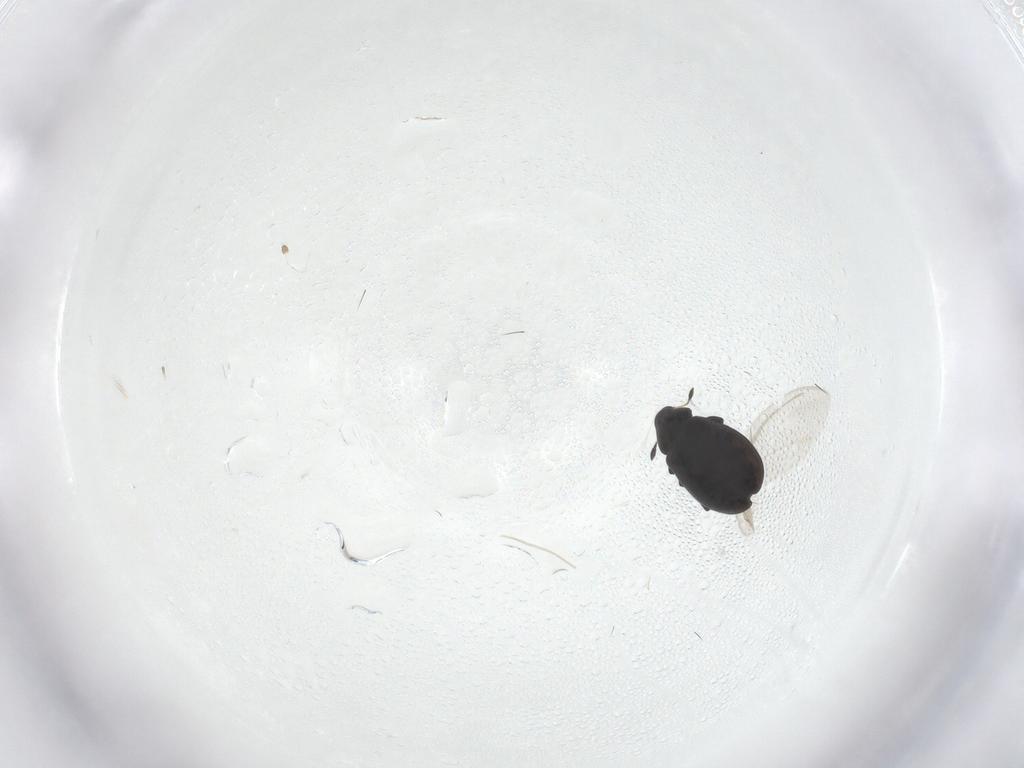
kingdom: Animalia
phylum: Arthropoda
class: Insecta
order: Coleoptera
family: Curculionidae
